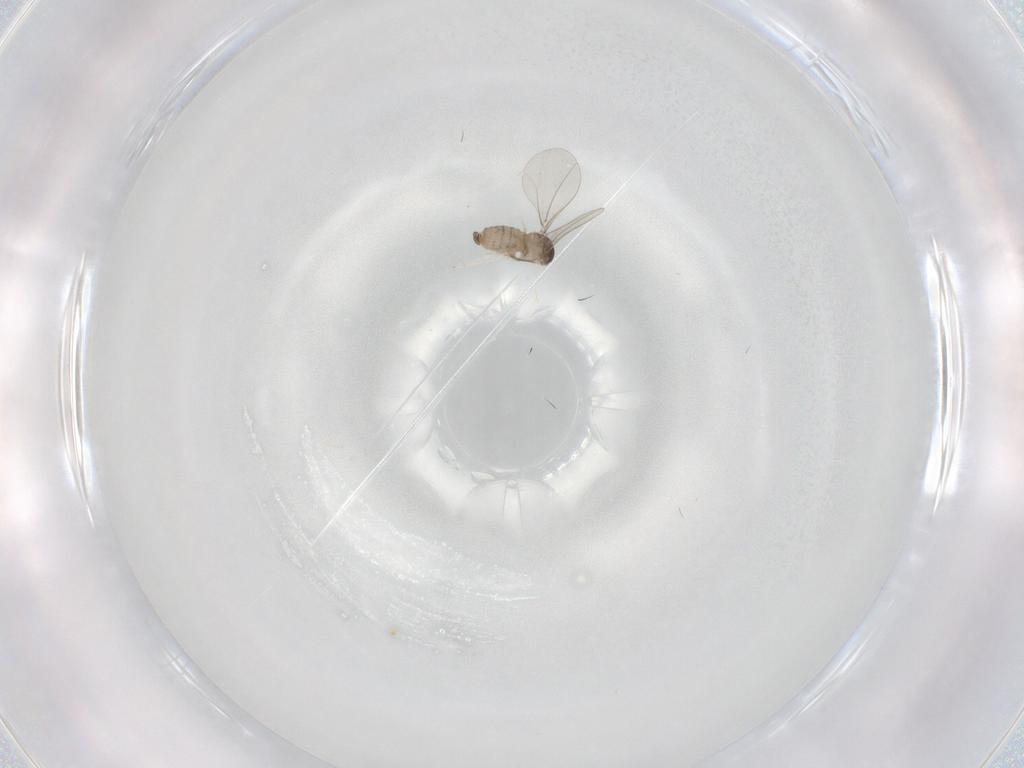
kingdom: Animalia
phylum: Arthropoda
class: Insecta
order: Diptera
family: Cecidomyiidae
